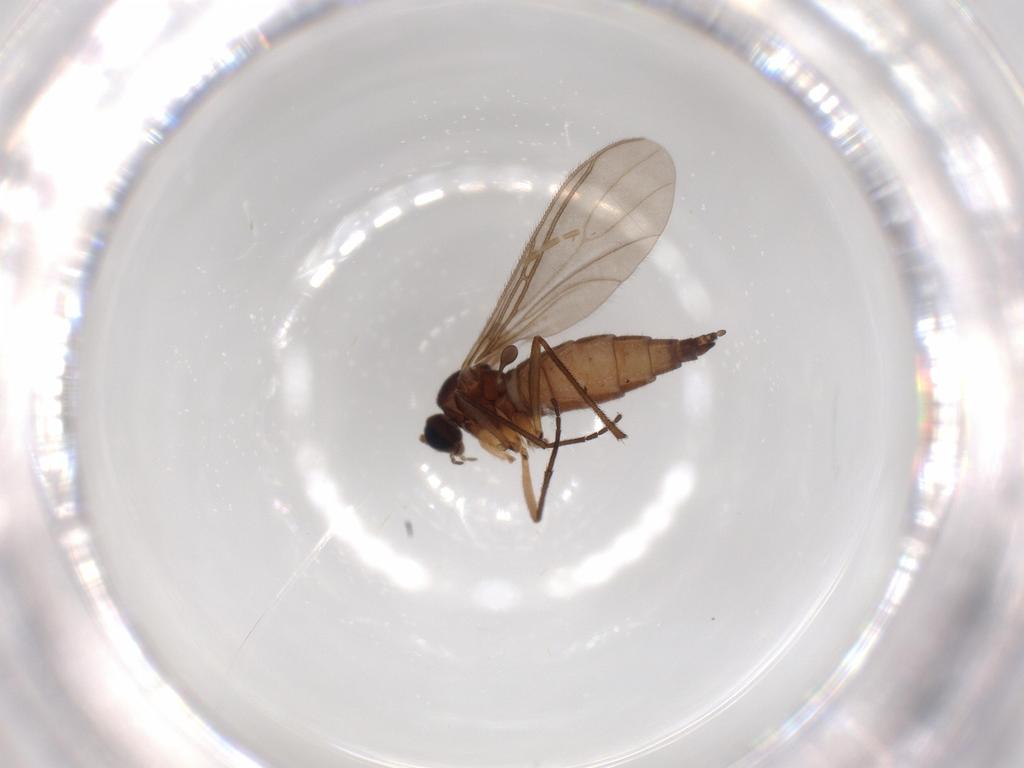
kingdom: Animalia
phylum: Arthropoda
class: Insecta
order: Diptera
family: Sciaridae
